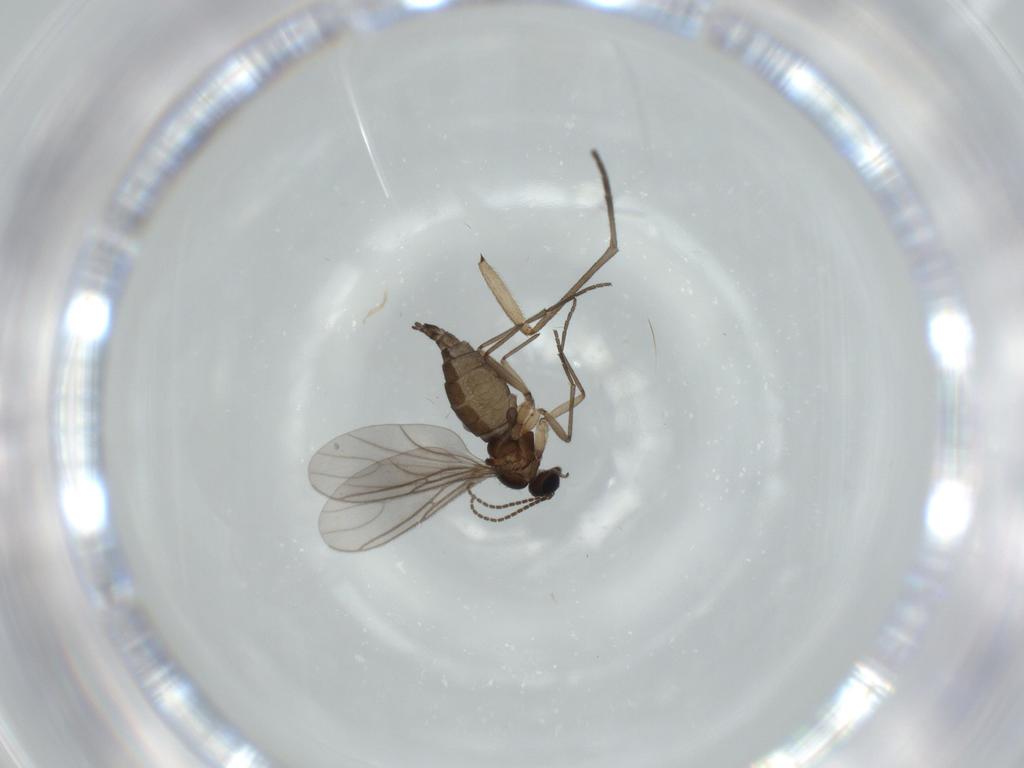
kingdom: Animalia
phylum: Arthropoda
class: Insecta
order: Diptera
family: Sciaridae
